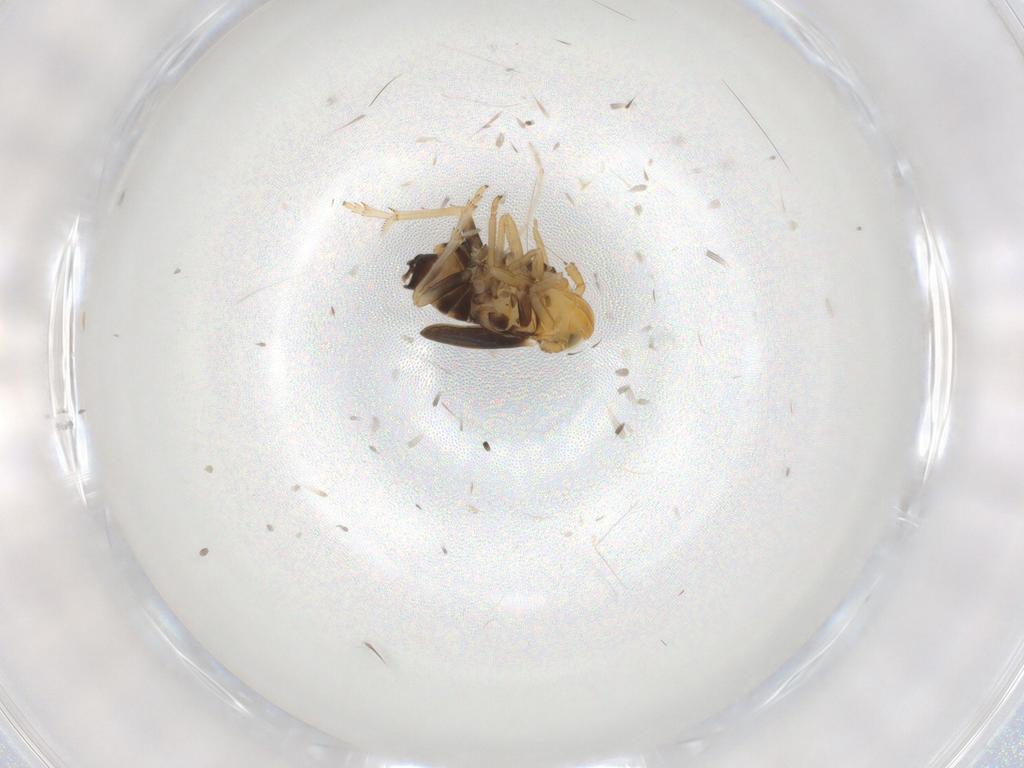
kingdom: Animalia
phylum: Arthropoda
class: Insecta
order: Hemiptera
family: Delphacidae
